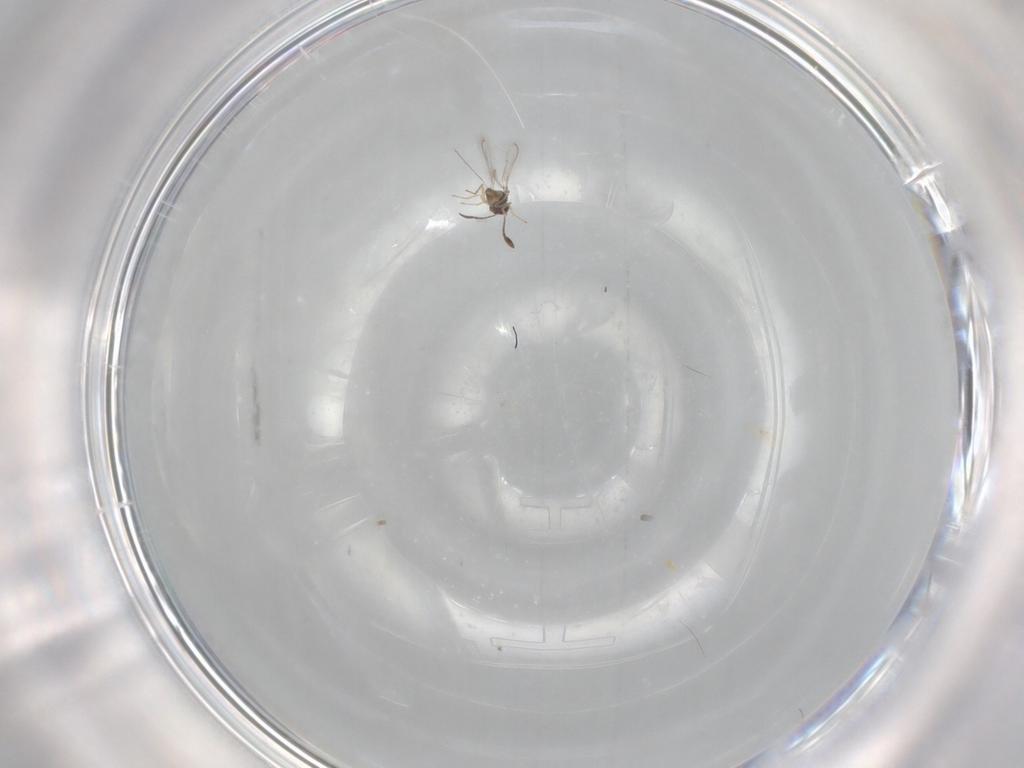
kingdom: Animalia
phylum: Arthropoda
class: Insecta
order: Hymenoptera
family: Mymaridae
